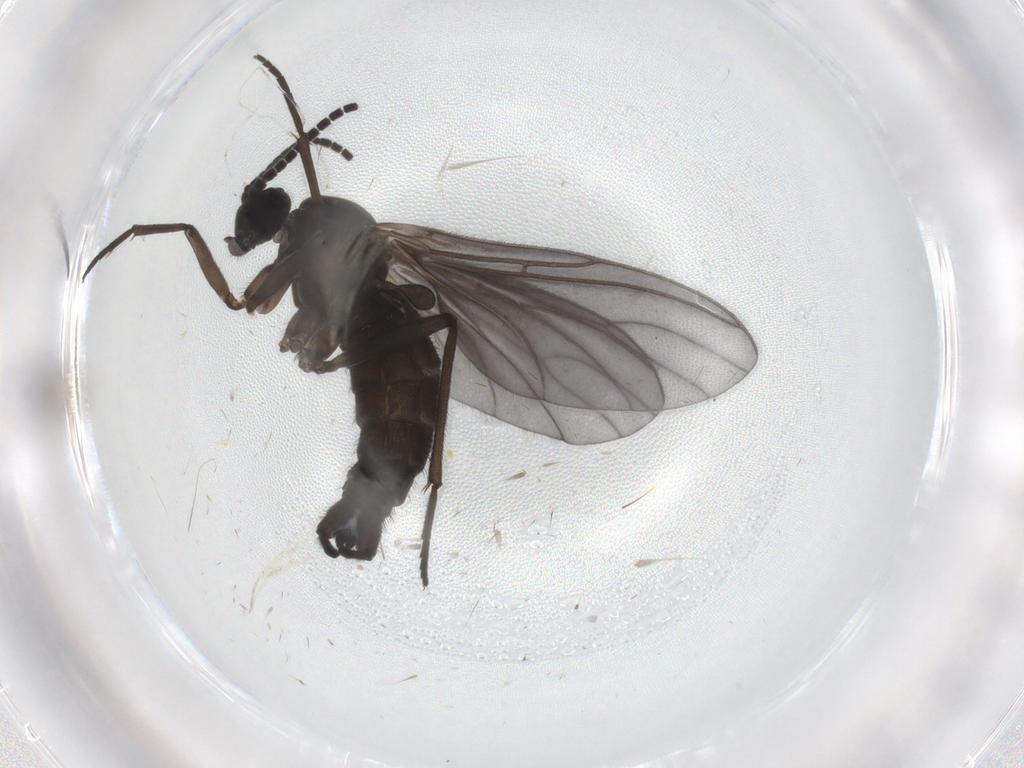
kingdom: Animalia
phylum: Arthropoda
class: Insecta
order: Diptera
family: Sciaridae
